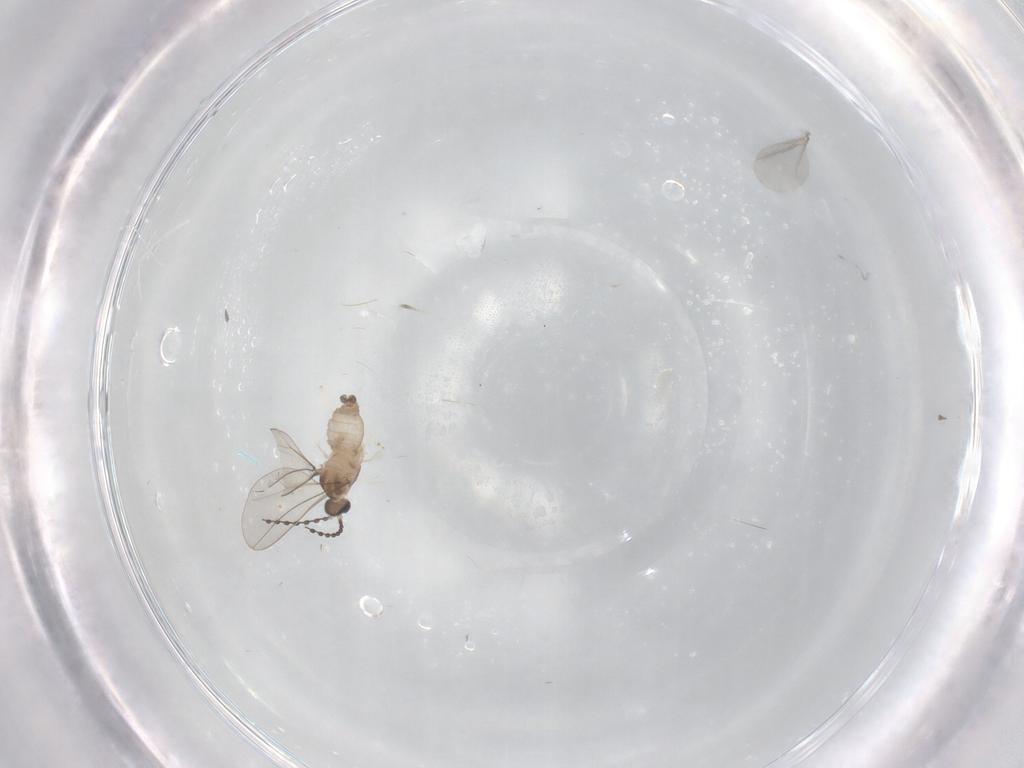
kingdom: Animalia
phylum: Arthropoda
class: Insecta
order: Diptera
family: Cecidomyiidae
